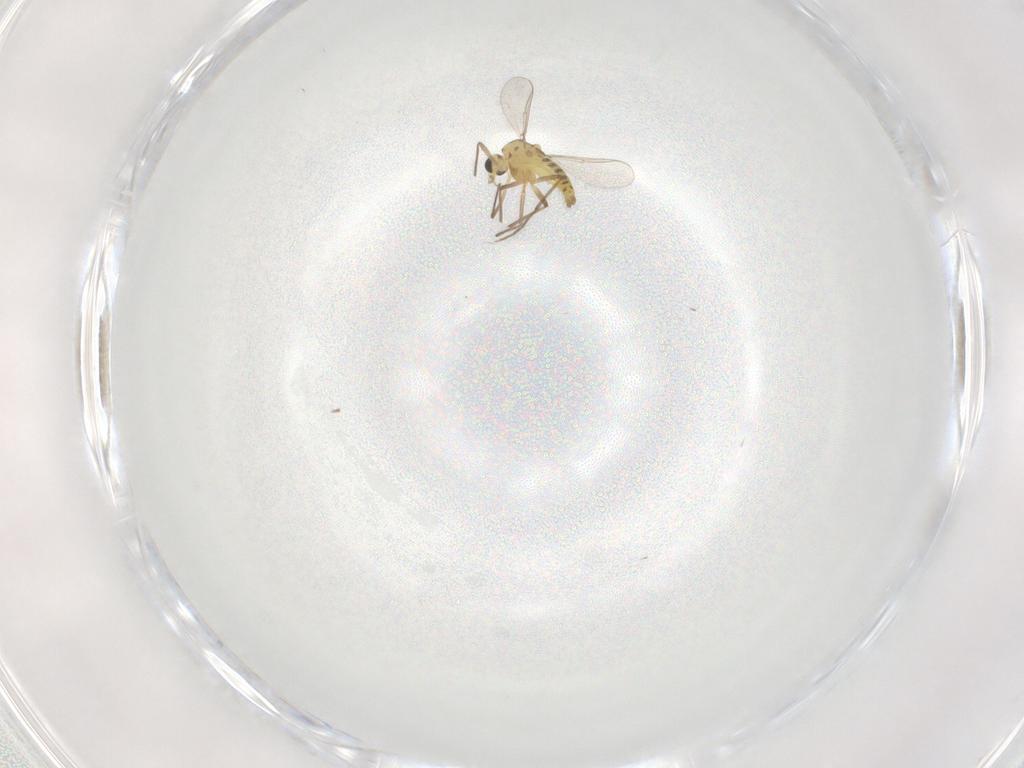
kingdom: Animalia
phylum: Arthropoda
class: Insecta
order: Diptera
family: Chironomidae
